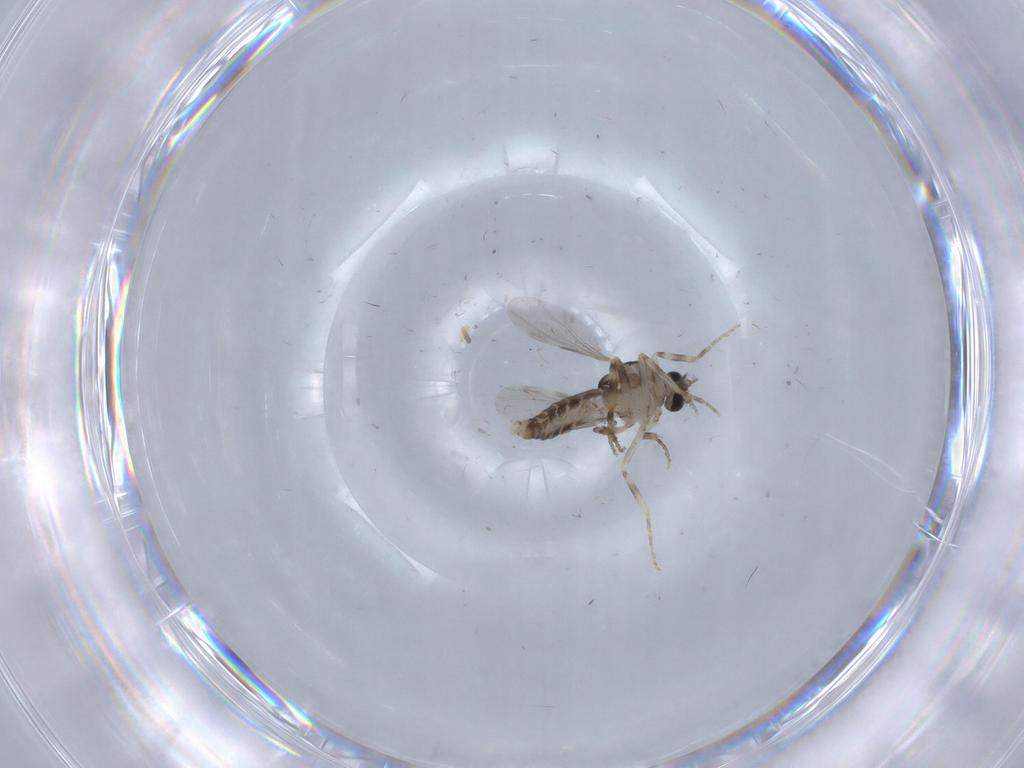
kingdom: Animalia
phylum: Arthropoda
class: Insecta
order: Diptera
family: Ceratopogonidae
